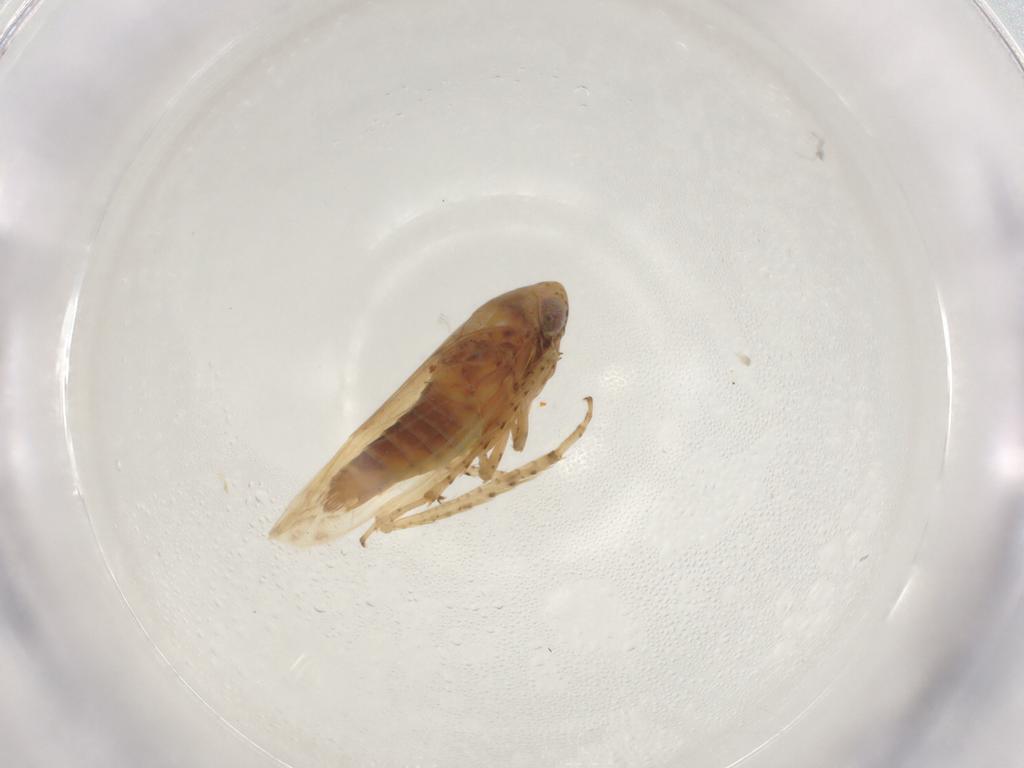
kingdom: Animalia
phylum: Arthropoda
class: Insecta
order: Hemiptera
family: Cicadellidae
